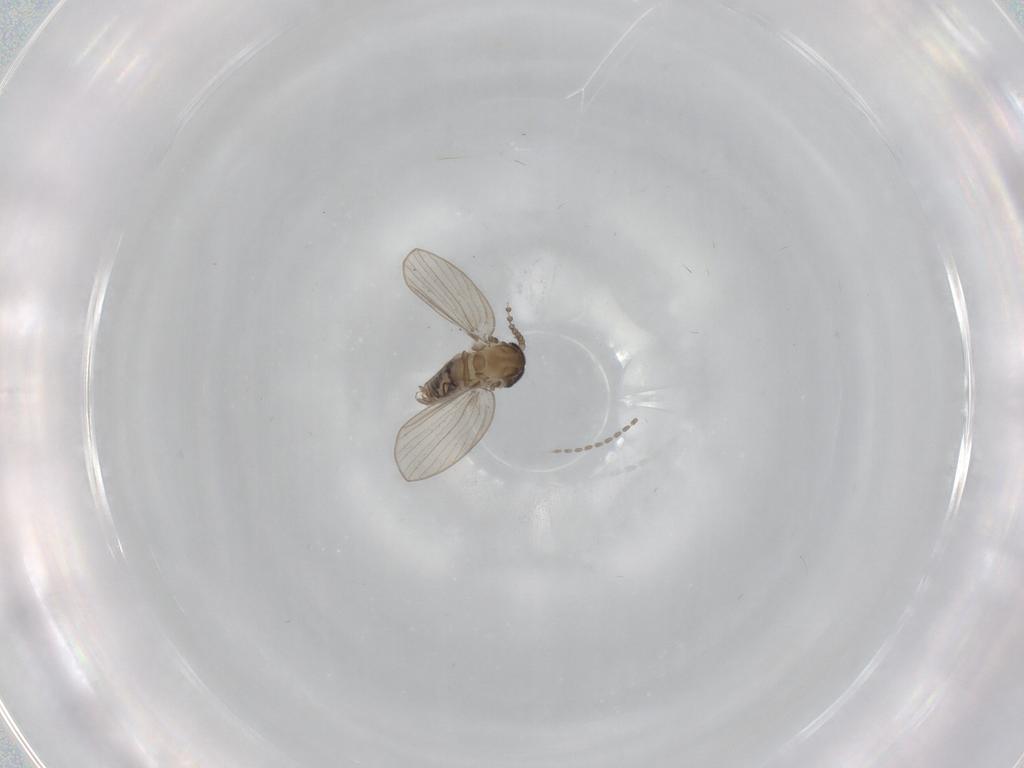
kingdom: Animalia
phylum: Arthropoda
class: Insecta
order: Diptera
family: Psychodidae
